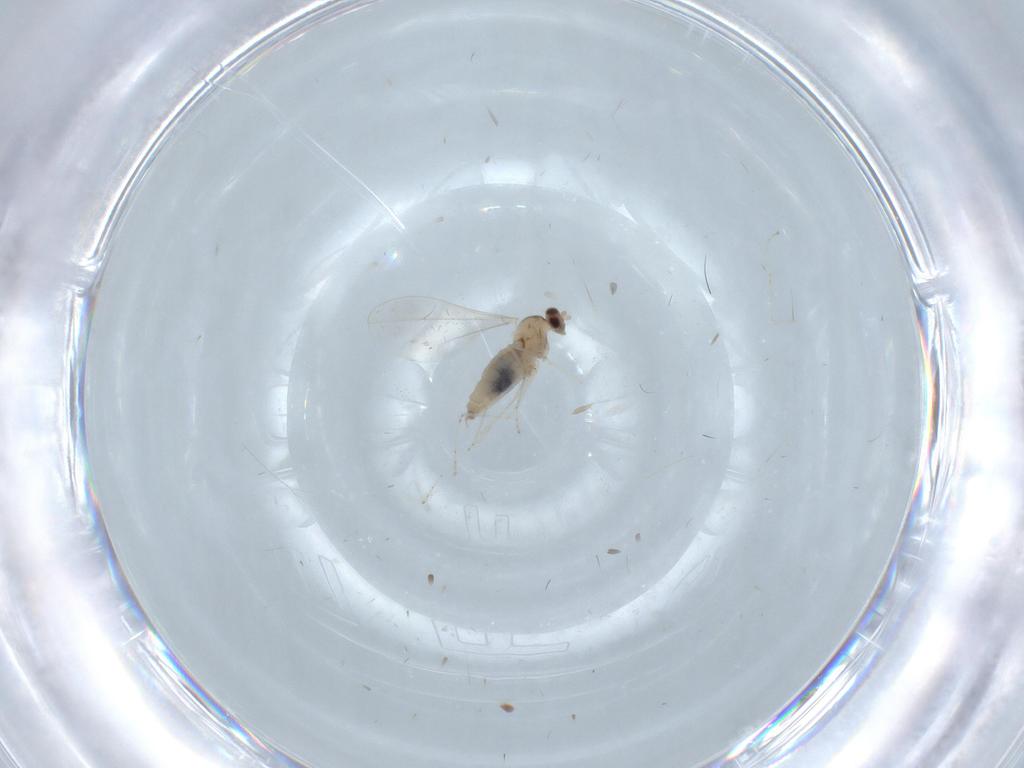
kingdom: Animalia
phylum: Arthropoda
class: Insecta
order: Diptera
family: Cecidomyiidae
